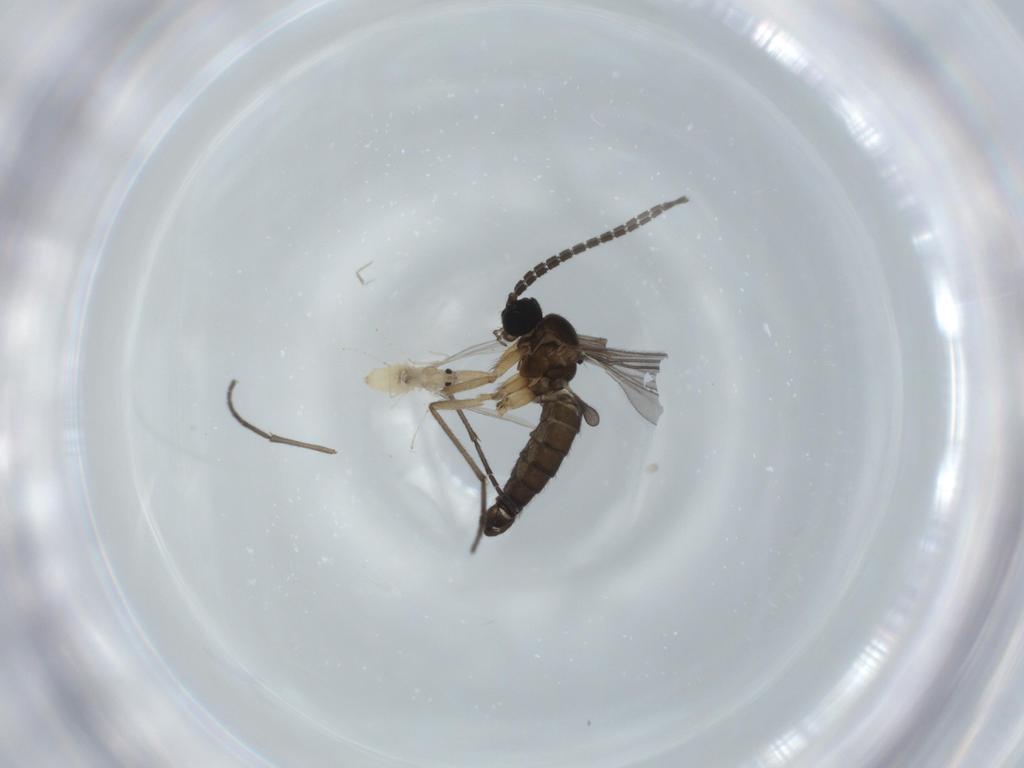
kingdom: Animalia
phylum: Arthropoda
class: Insecta
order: Diptera
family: Cecidomyiidae
